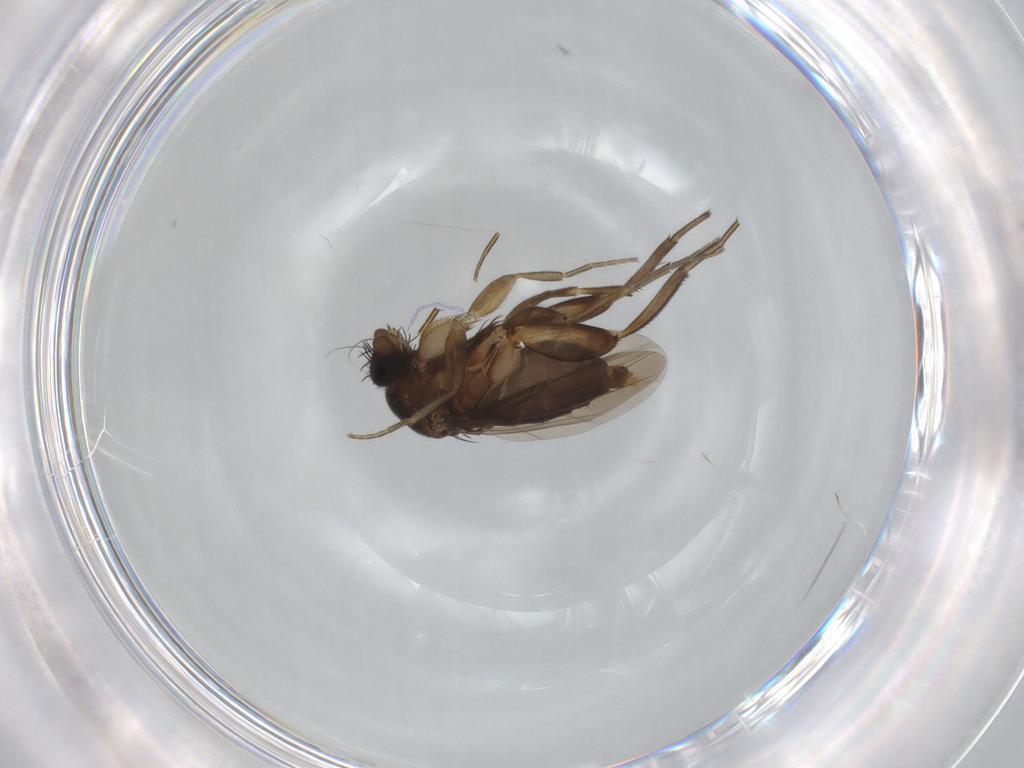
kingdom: Animalia
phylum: Arthropoda
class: Insecta
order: Diptera
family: Phoridae
